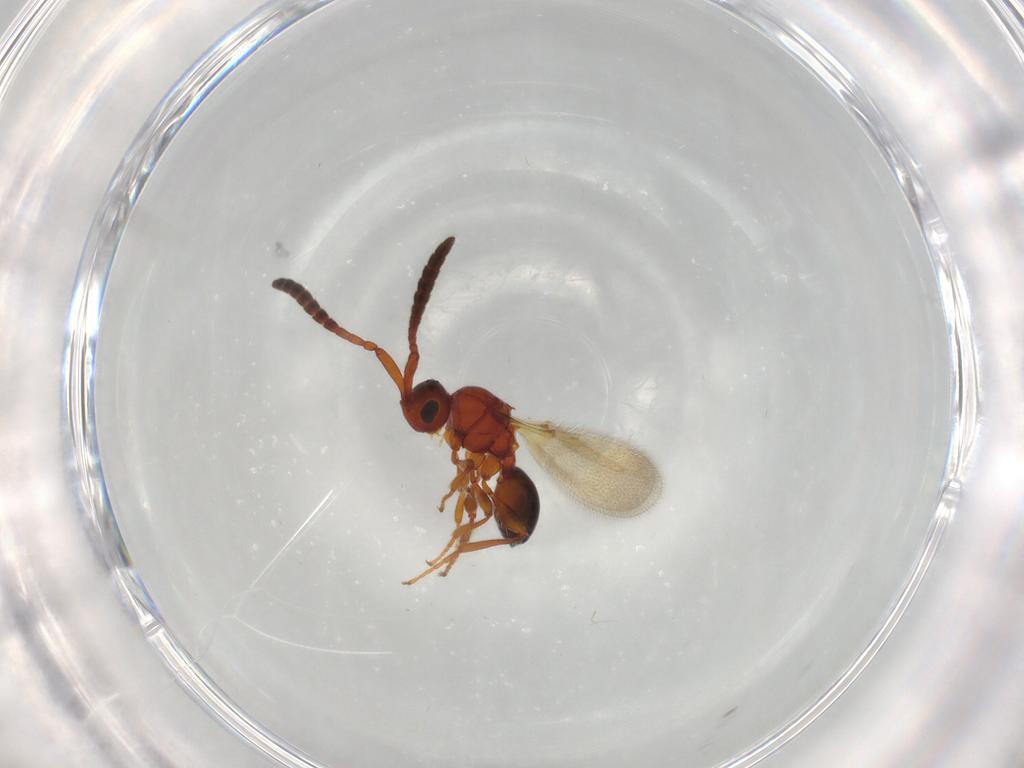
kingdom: Animalia
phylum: Arthropoda
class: Insecta
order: Hymenoptera
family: Diapriidae
